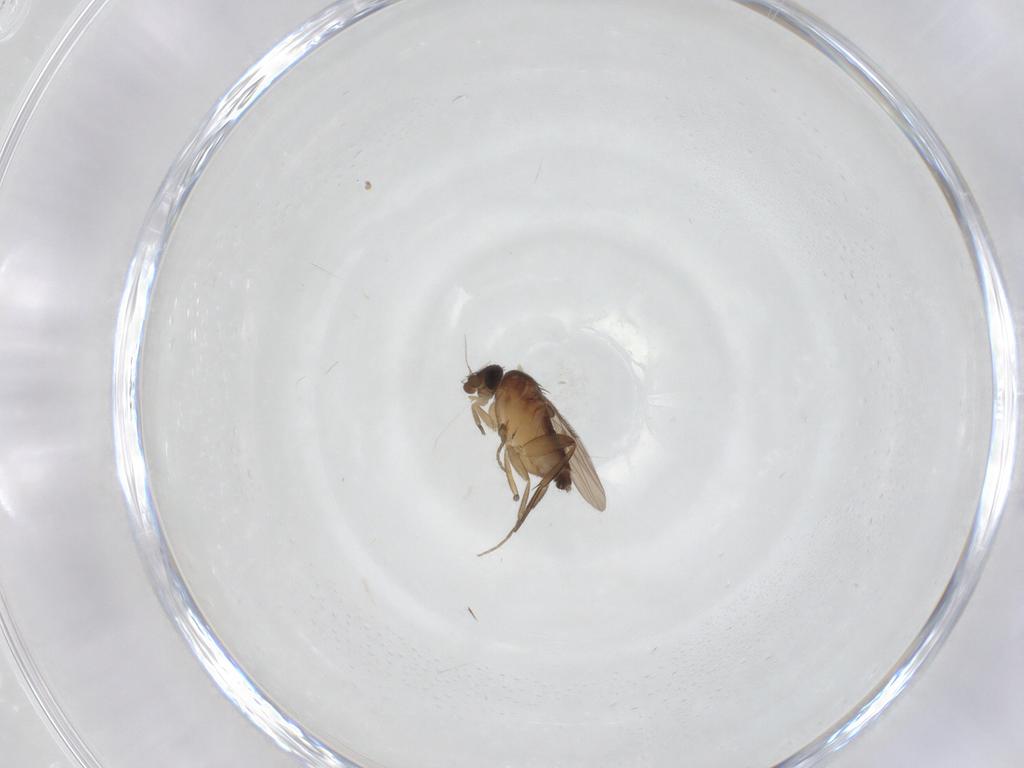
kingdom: Animalia
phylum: Arthropoda
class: Insecta
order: Diptera
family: Phoridae
